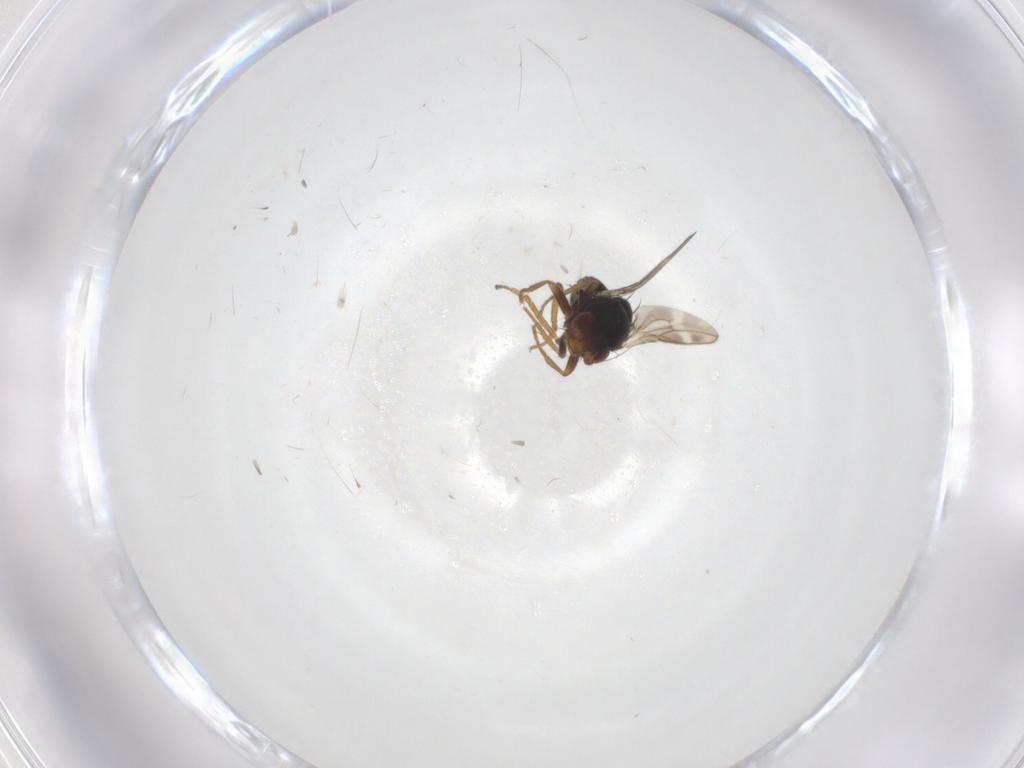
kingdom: Animalia
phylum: Arthropoda
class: Insecta
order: Diptera
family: Sphaeroceridae
